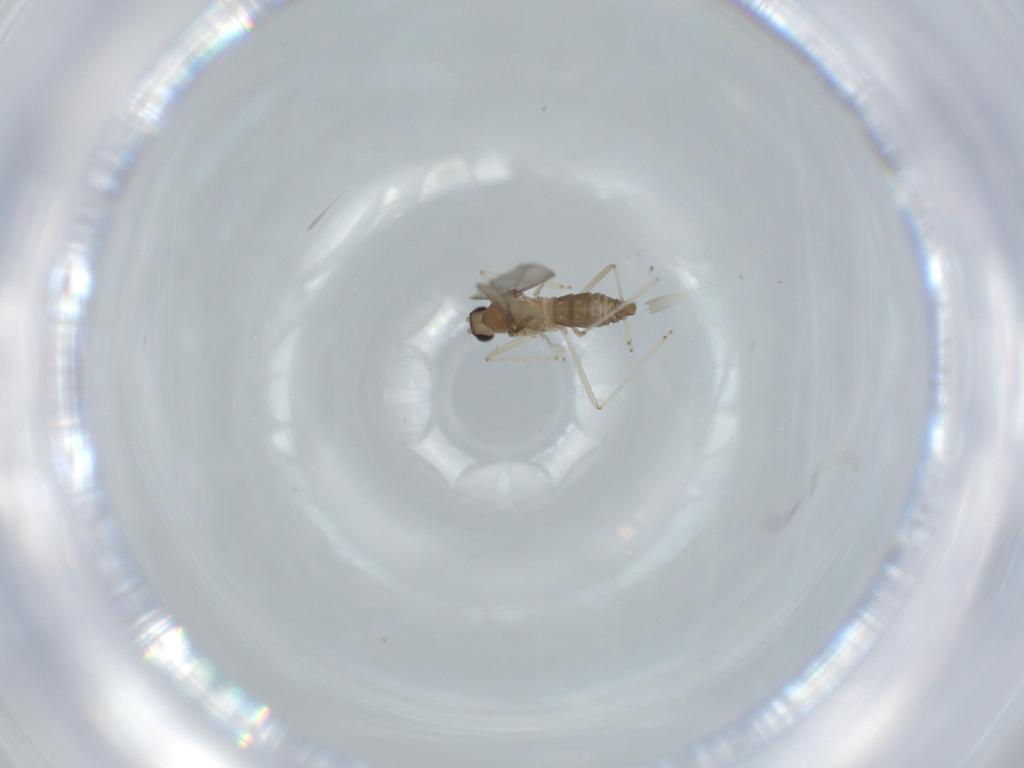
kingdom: Animalia
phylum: Arthropoda
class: Insecta
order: Diptera
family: Cecidomyiidae
